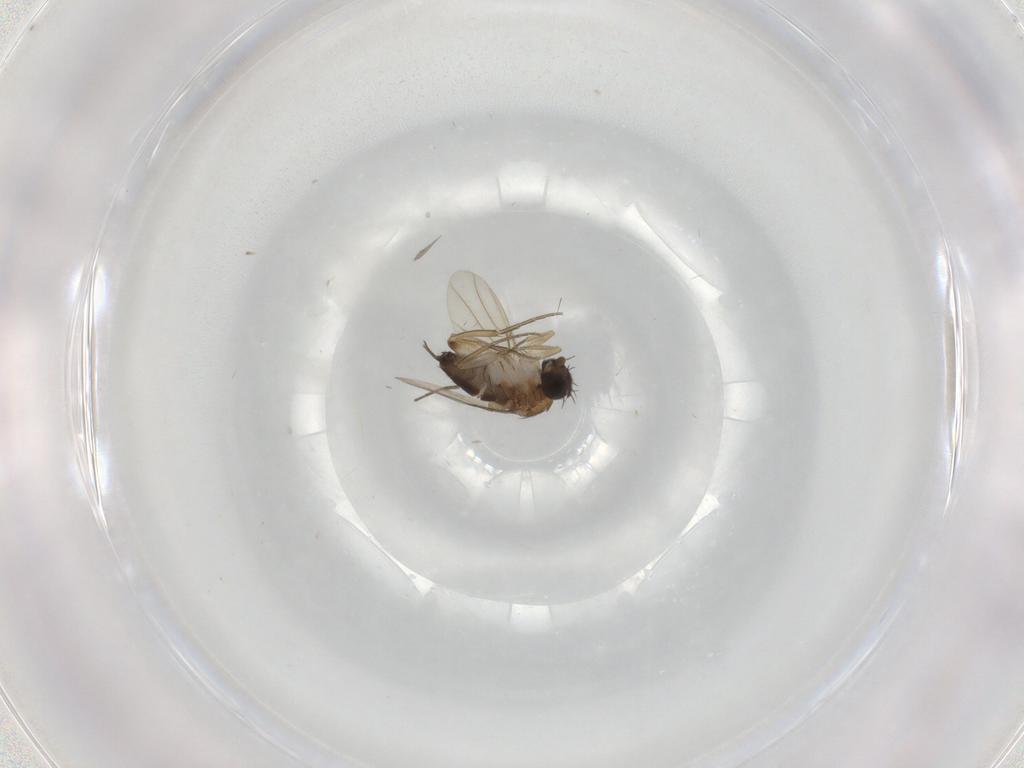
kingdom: Animalia
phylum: Arthropoda
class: Insecta
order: Diptera
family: Phoridae
